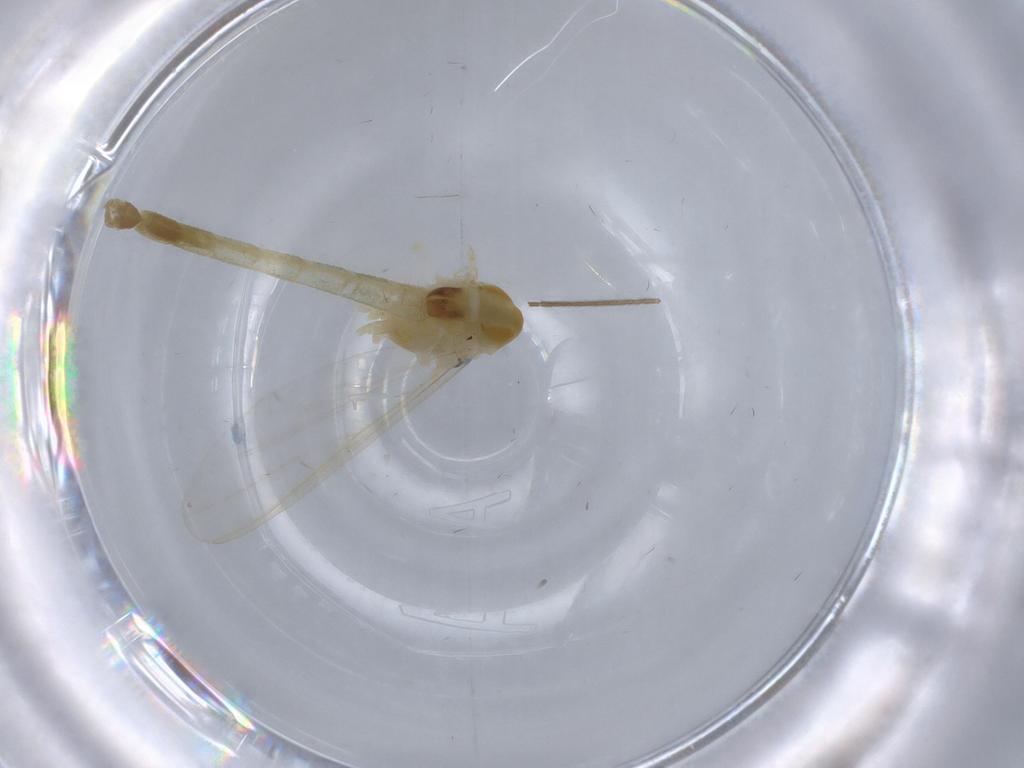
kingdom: Animalia
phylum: Arthropoda
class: Insecta
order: Diptera
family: Chironomidae
